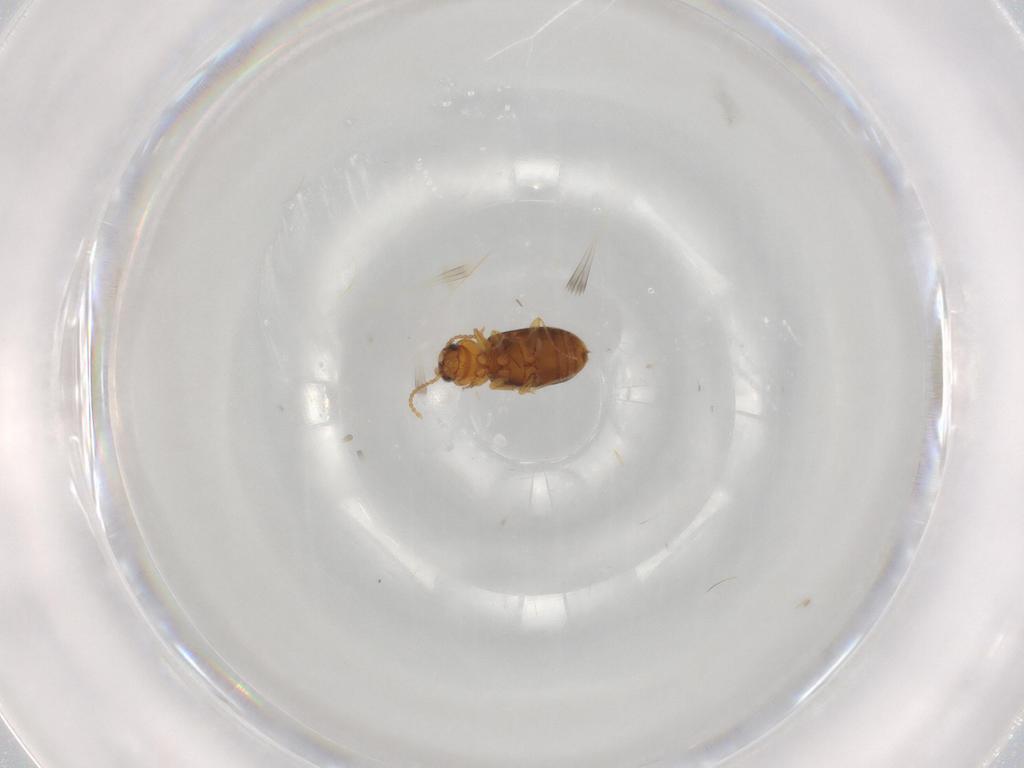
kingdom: Animalia
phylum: Arthropoda
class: Insecta
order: Coleoptera
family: Carabidae
